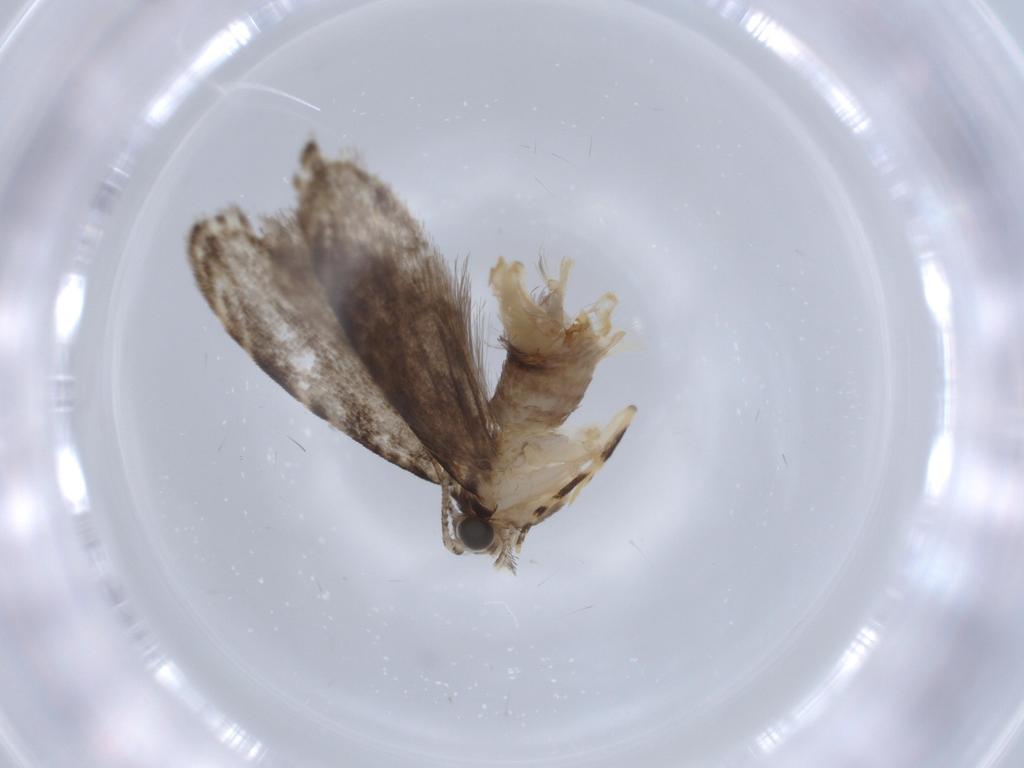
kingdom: Animalia
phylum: Arthropoda
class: Insecta
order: Lepidoptera
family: Tineidae
